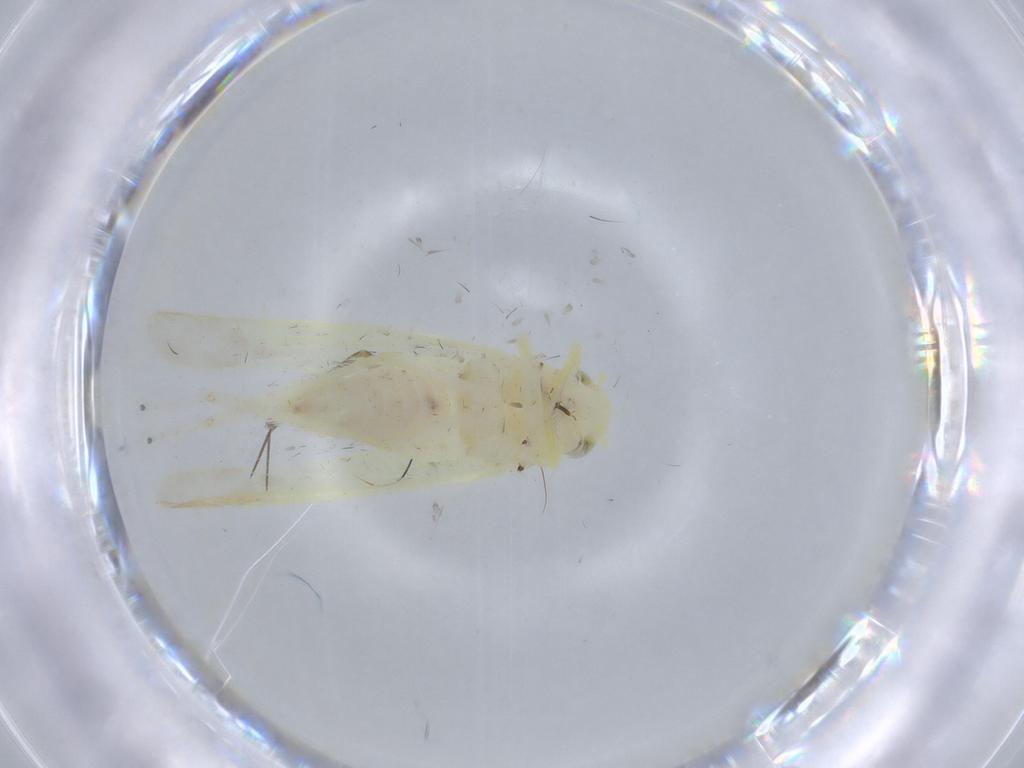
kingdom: Animalia
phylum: Arthropoda
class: Insecta
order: Hemiptera
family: Cicadellidae
